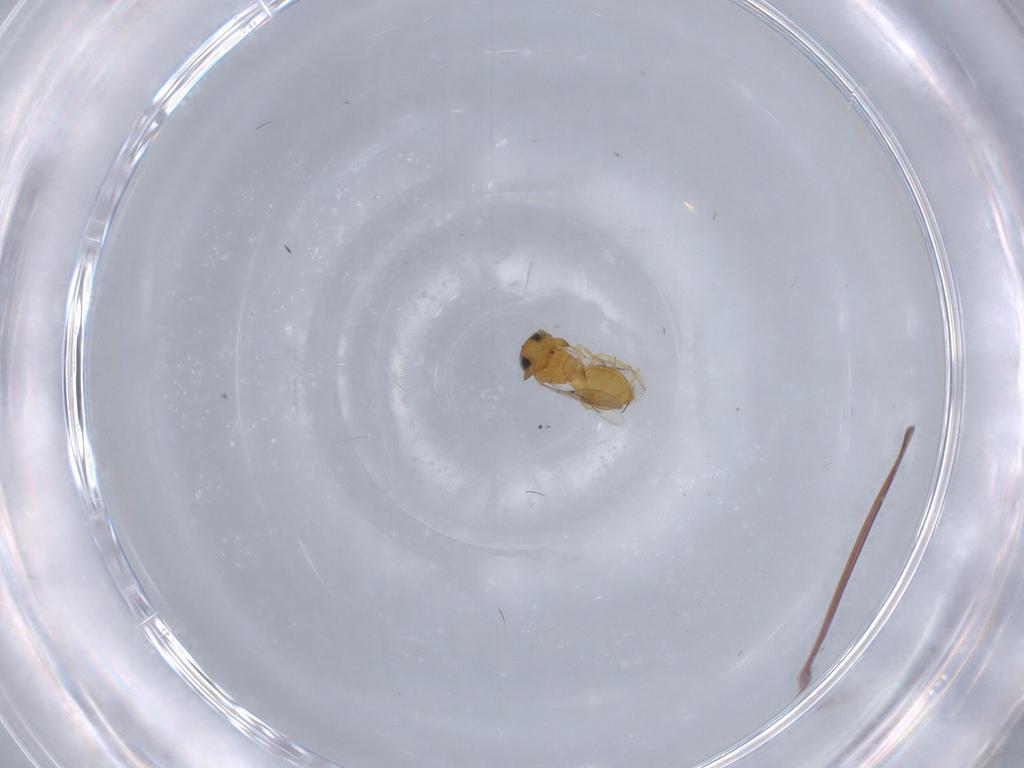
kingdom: Animalia
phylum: Arthropoda
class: Insecta
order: Hymenoptera
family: Scelionidae
